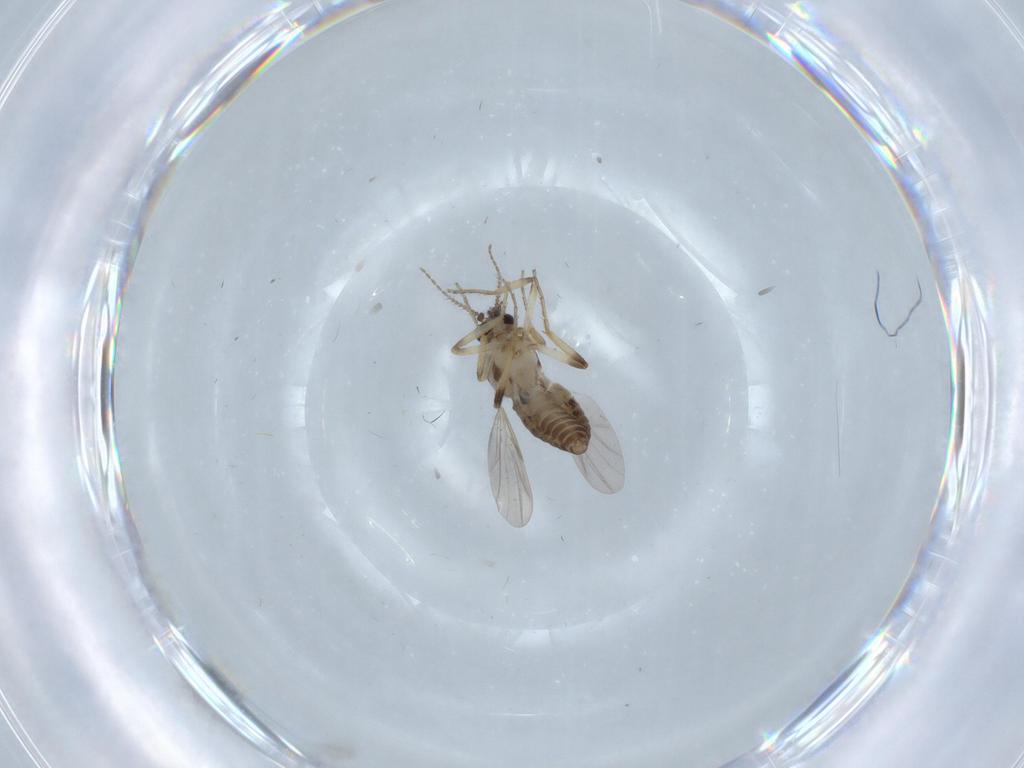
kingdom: Animalia
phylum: Arthropoda
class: Insecta
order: Diptera
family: Ceratopogonidae
